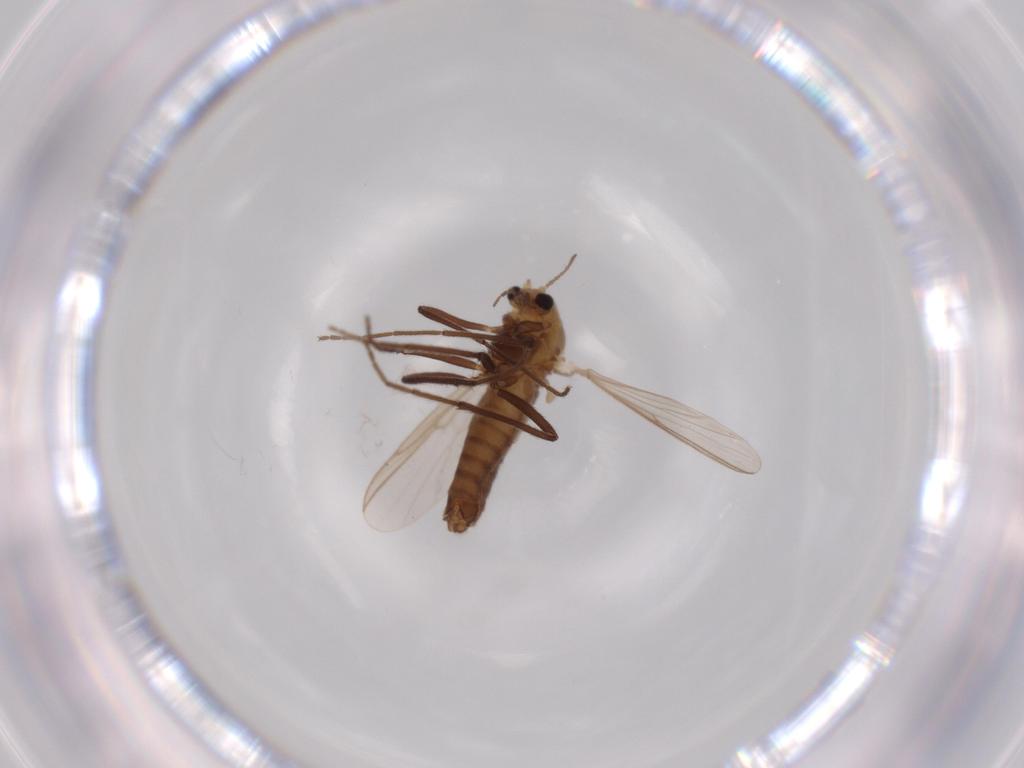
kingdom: Animalia
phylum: Arthropoda
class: Insecta
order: Diptera
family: Chironomidae
